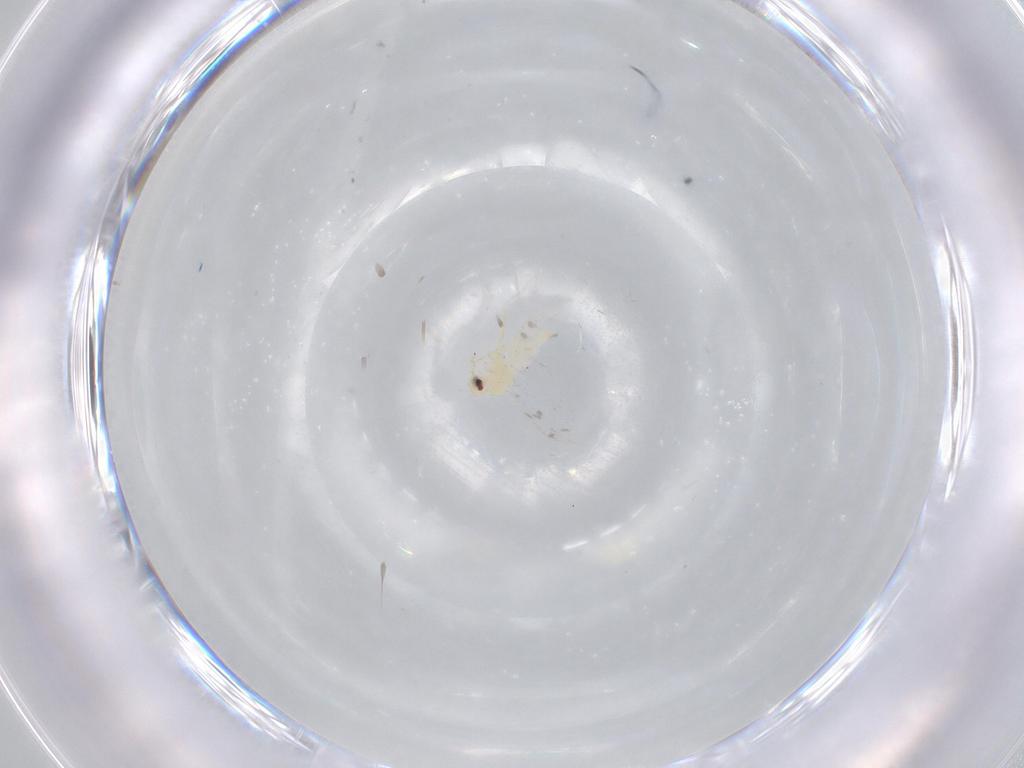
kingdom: Animalia
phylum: Arthropoda
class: Insecta
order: Hemiptera
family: Aleyrodidae
